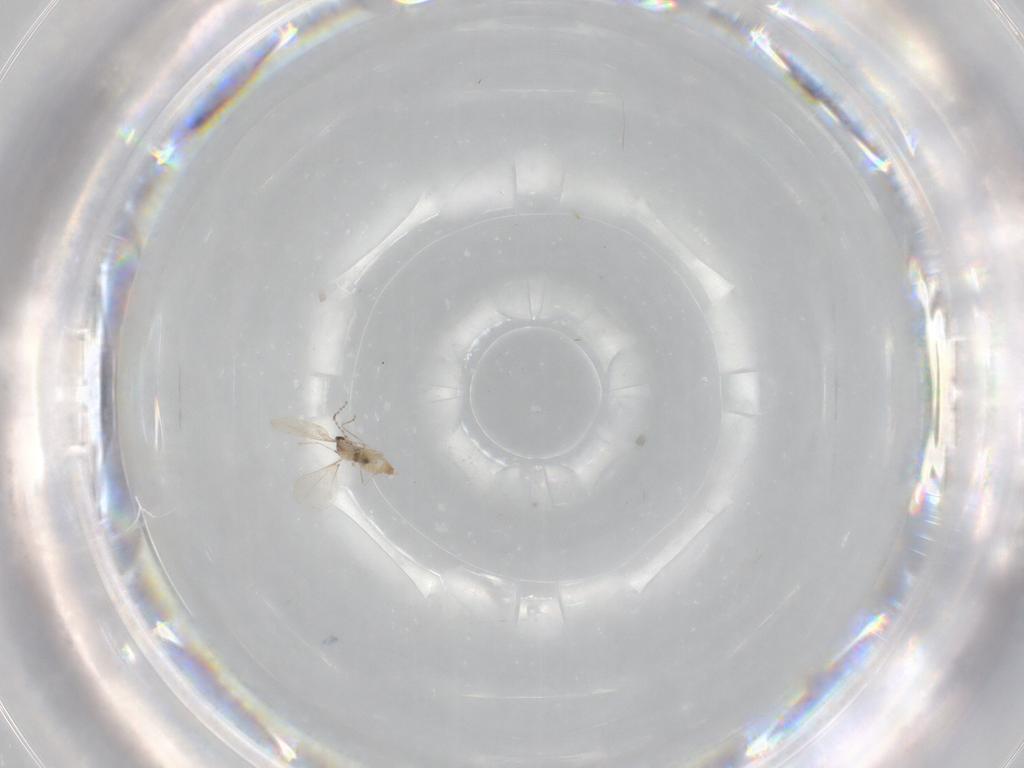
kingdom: Animalia
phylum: Arthropoda
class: Insecta
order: Diptera
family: Cecidomyiidae
